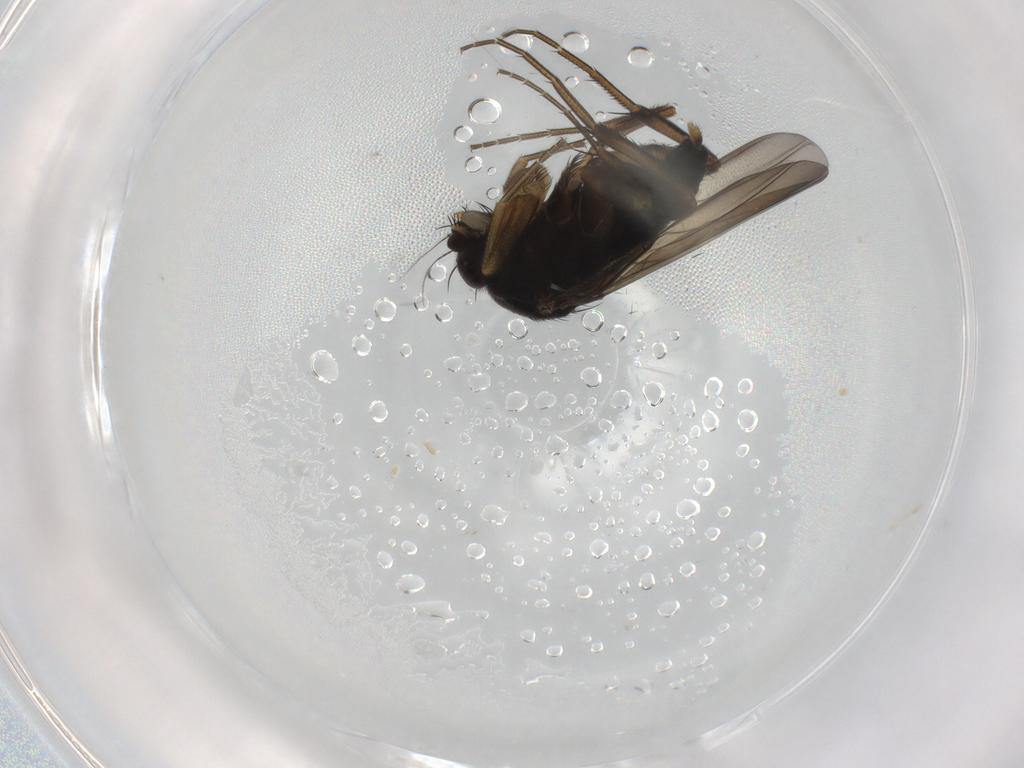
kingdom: Animalia
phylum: Arthropoda
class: Insecta
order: Diptera
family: Phoridae
